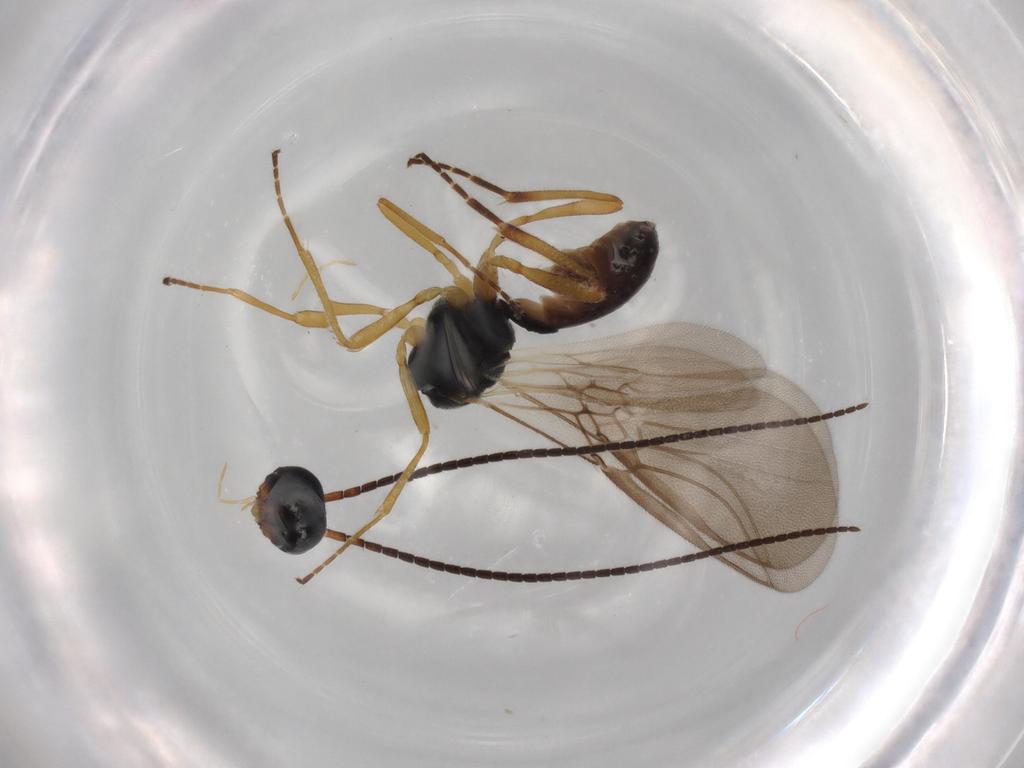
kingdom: Animalia
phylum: Arthropoda
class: Insecta
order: Hymenoptera
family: Braconidae
